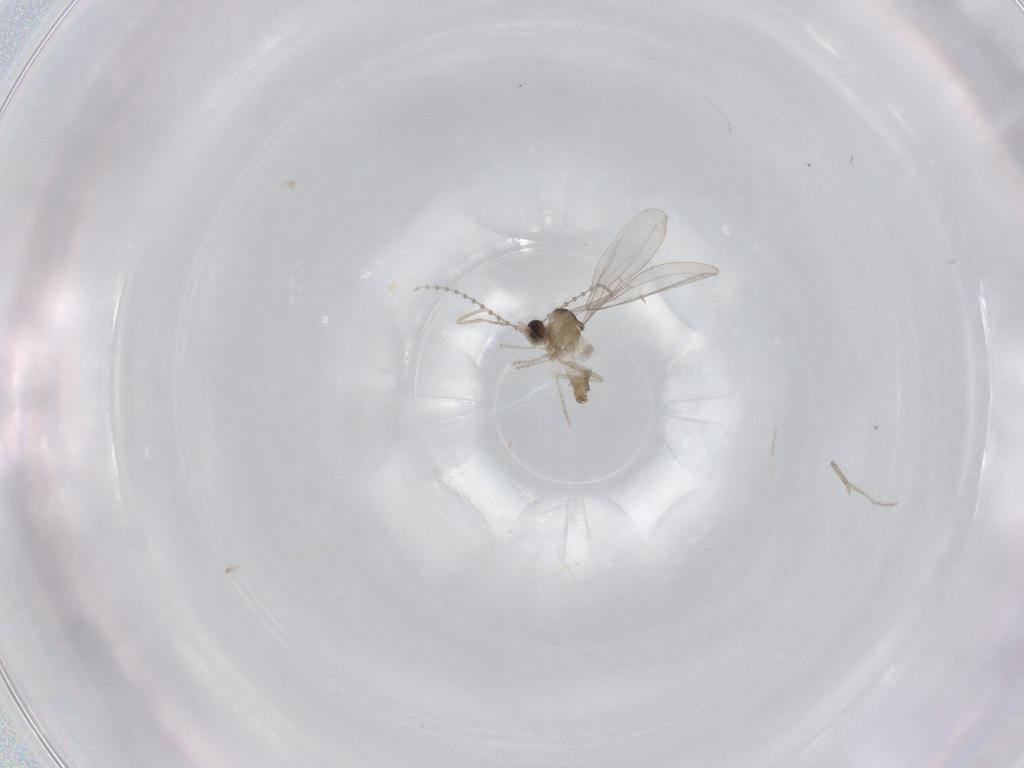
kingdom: Animalia
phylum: Arthropoda
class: Insecta
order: Diptera
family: Cecidomyiidae
